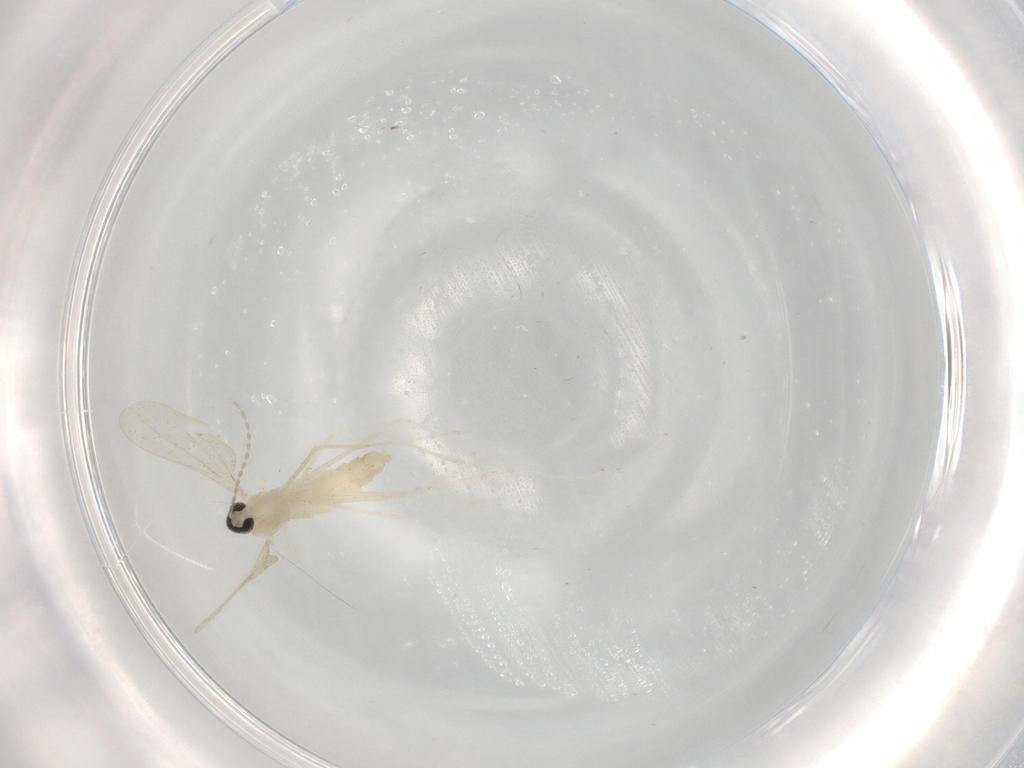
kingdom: Animalia
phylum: Arthropoda
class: Insecta
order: Diptera
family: Cecidomyiidae
